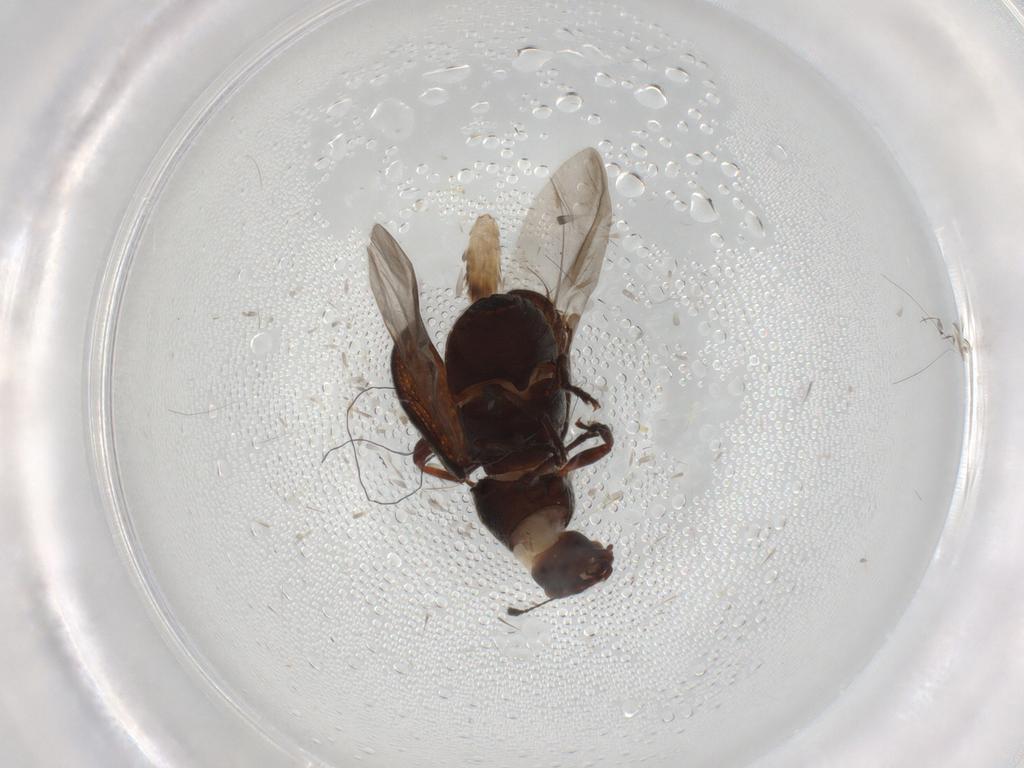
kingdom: Animalia
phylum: Arthropoda
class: Insecta
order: Coleoptera
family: Anthribidae
